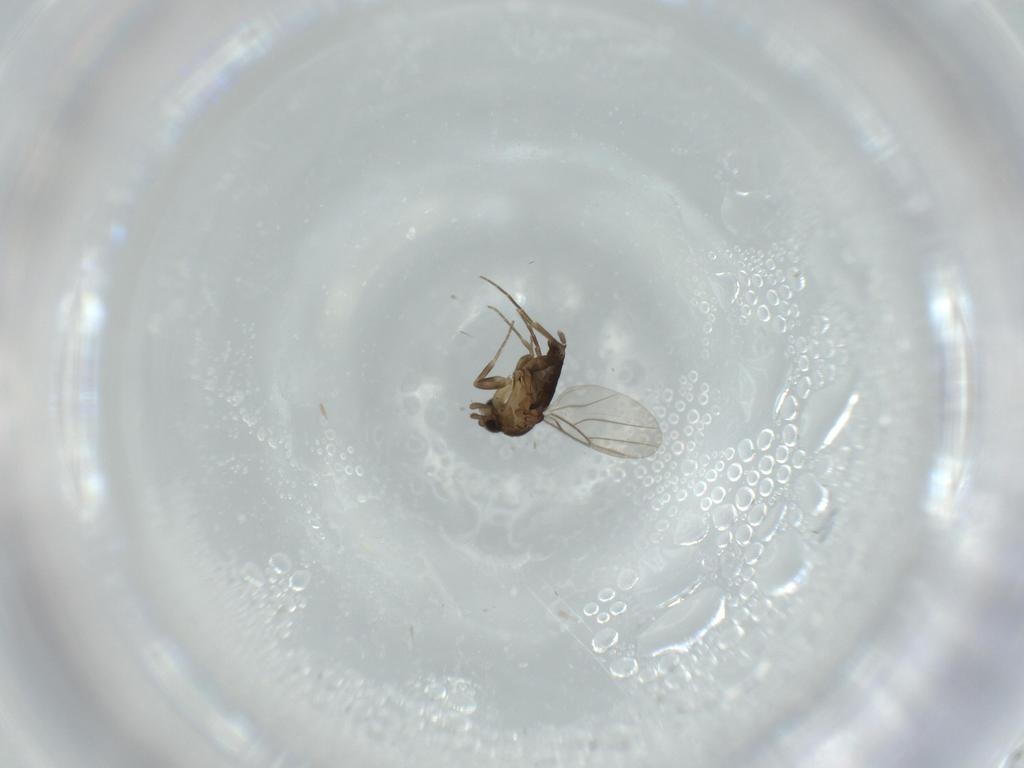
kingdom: Animalia
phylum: Arthropoda
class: Insecta
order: Diptera
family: Phoridae
